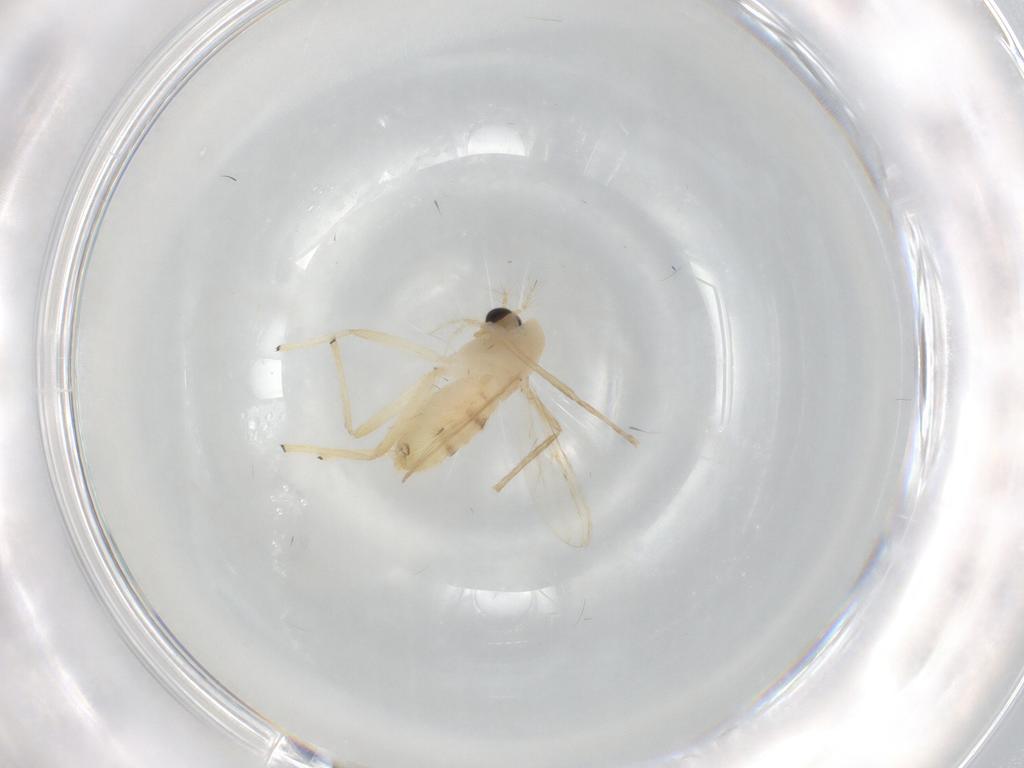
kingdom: Animalia
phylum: Arthropoda
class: Insecta
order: Diptera
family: Chironomidae
